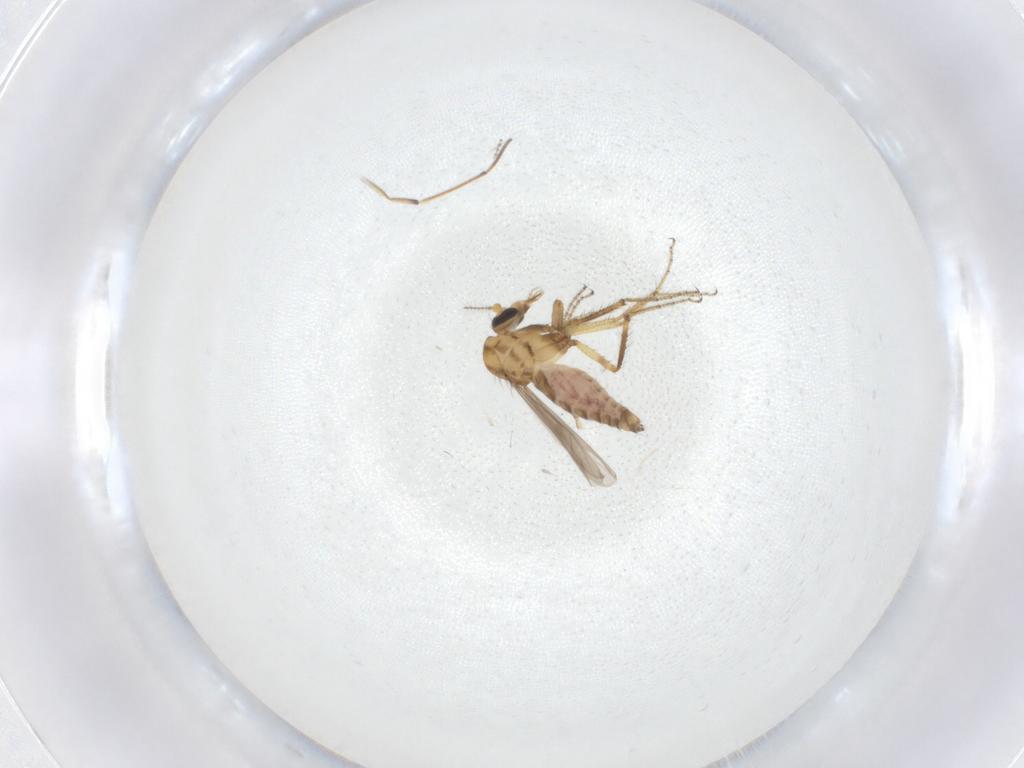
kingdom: Animalia
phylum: Arthropoda
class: Insecta
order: Diptera
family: Ceratopogonidae
